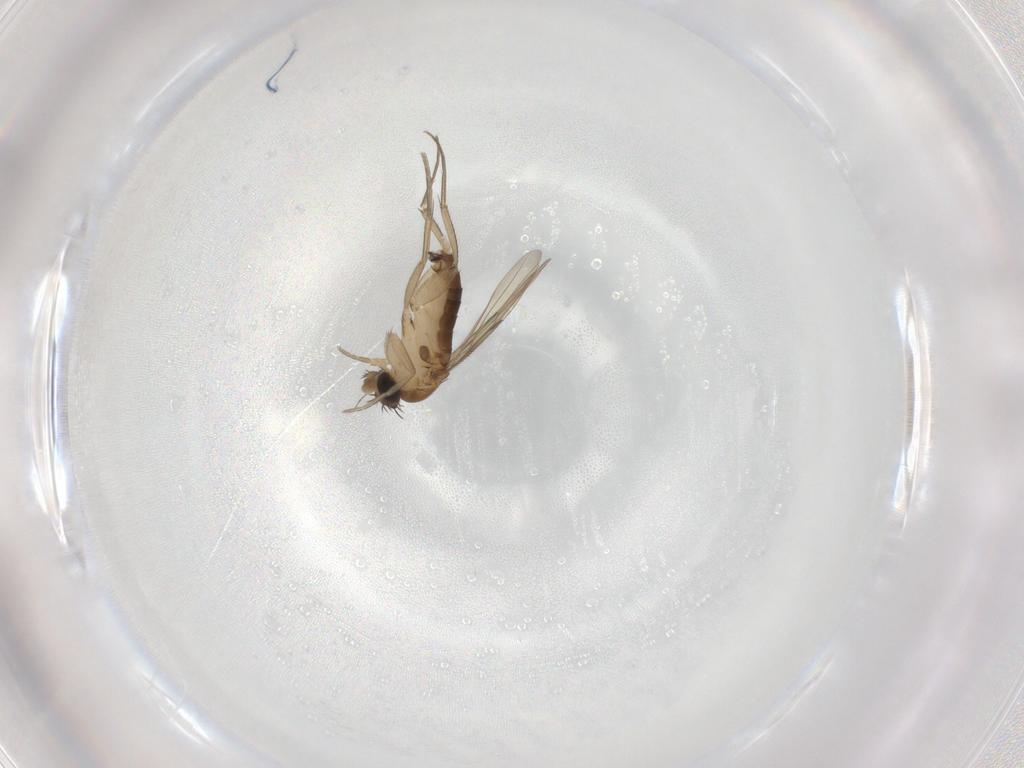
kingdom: Animalia
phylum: Arthropoda
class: Insecta
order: Diptera
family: Phoridae
